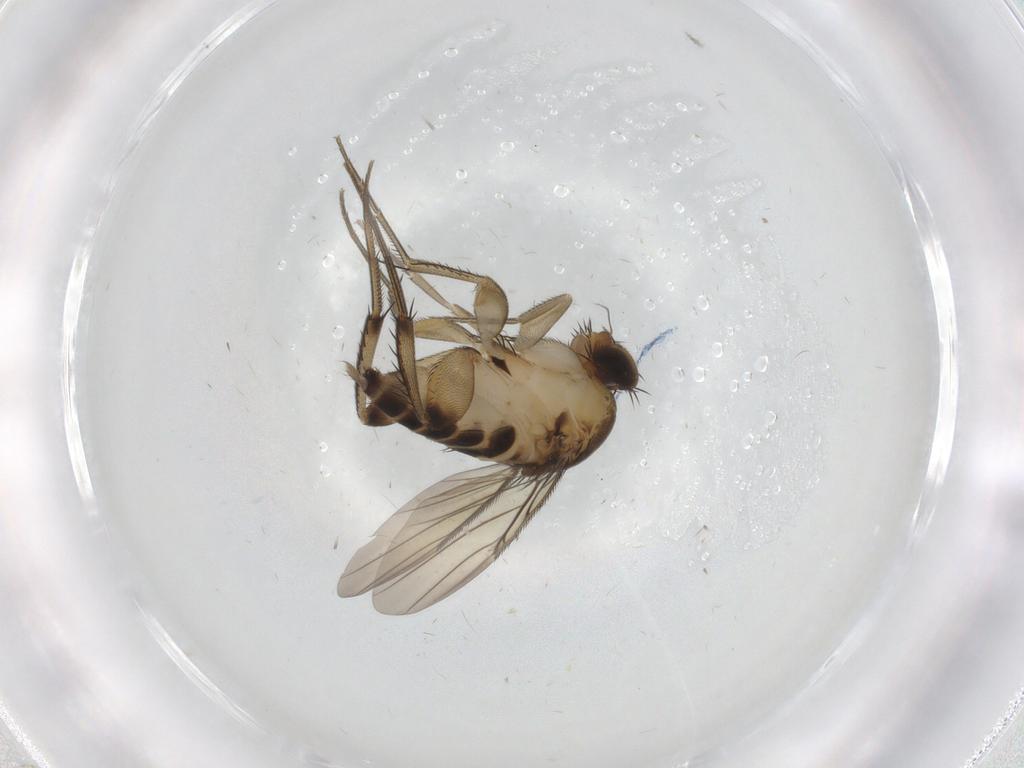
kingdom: Animalia
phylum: Arthropoda
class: Insecta
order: Diptera
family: Phoridae
